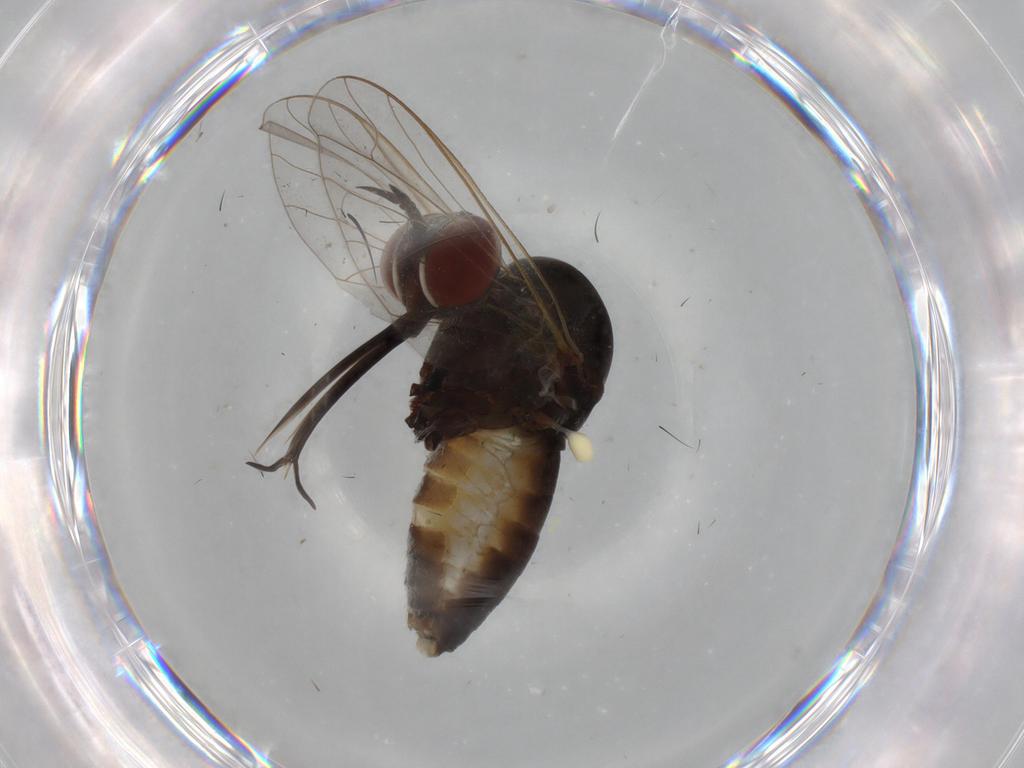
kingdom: Animalia
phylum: Arthropoda
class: Insecta
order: Diptera
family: Bombyliidae
